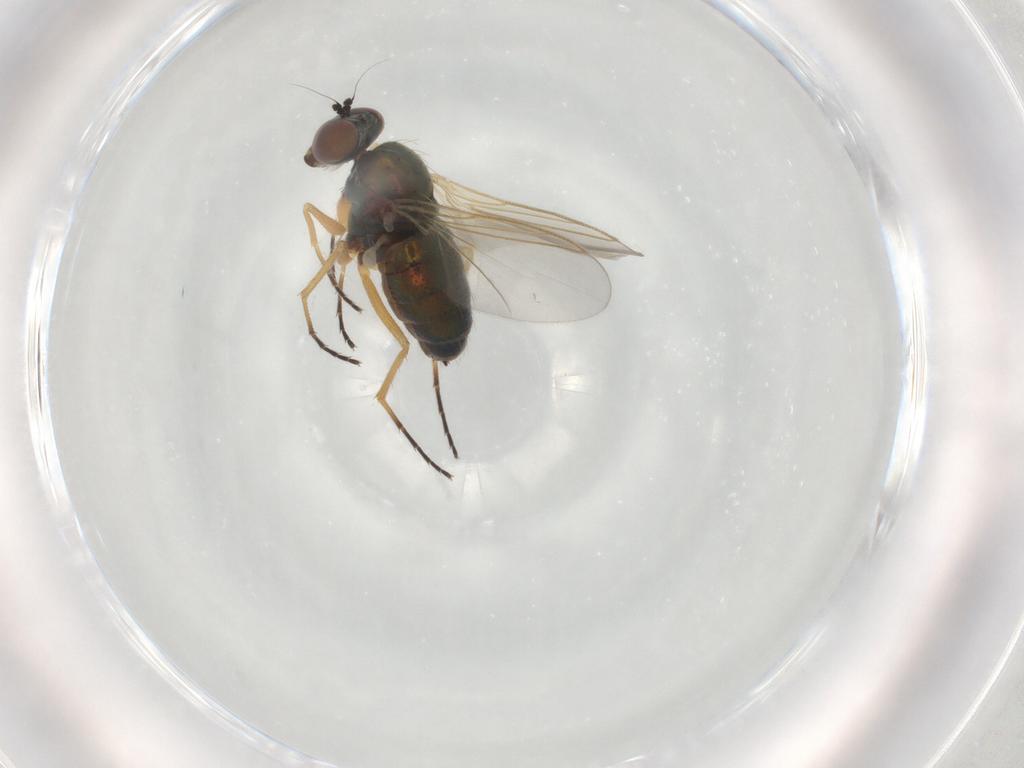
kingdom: Animalia
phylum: Arthropoda
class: Insecta
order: Diptera
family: Dolichopodidae
